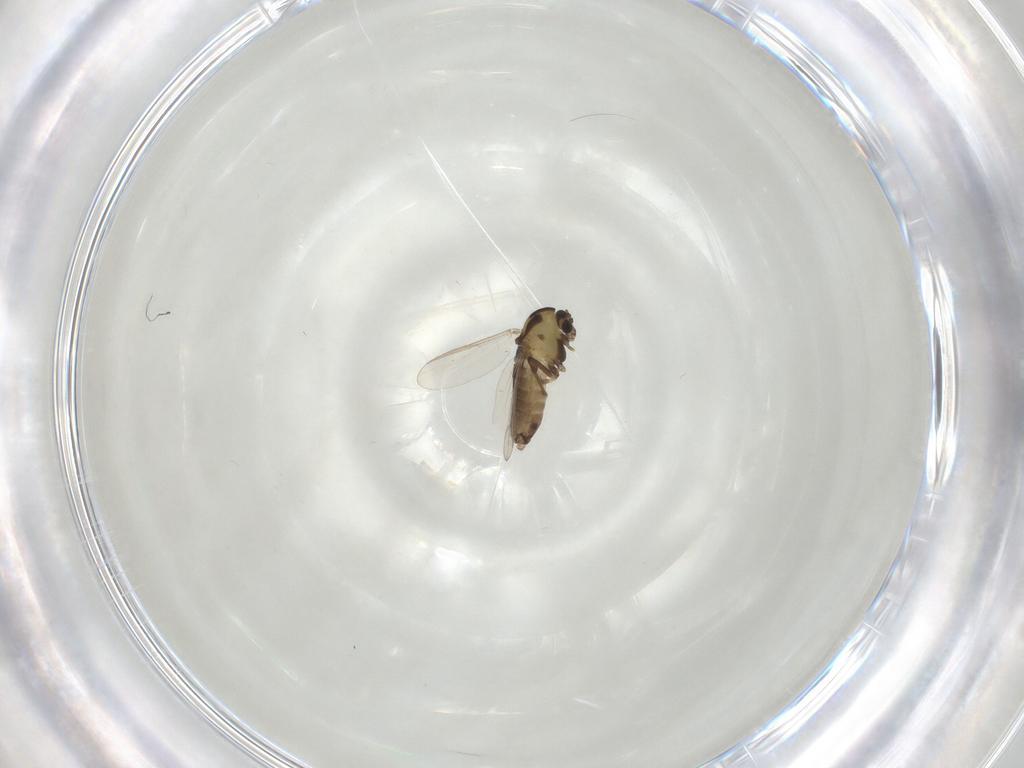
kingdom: Animalia
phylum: Arthropoda
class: Insecta
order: Diptera
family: Chironomidae
